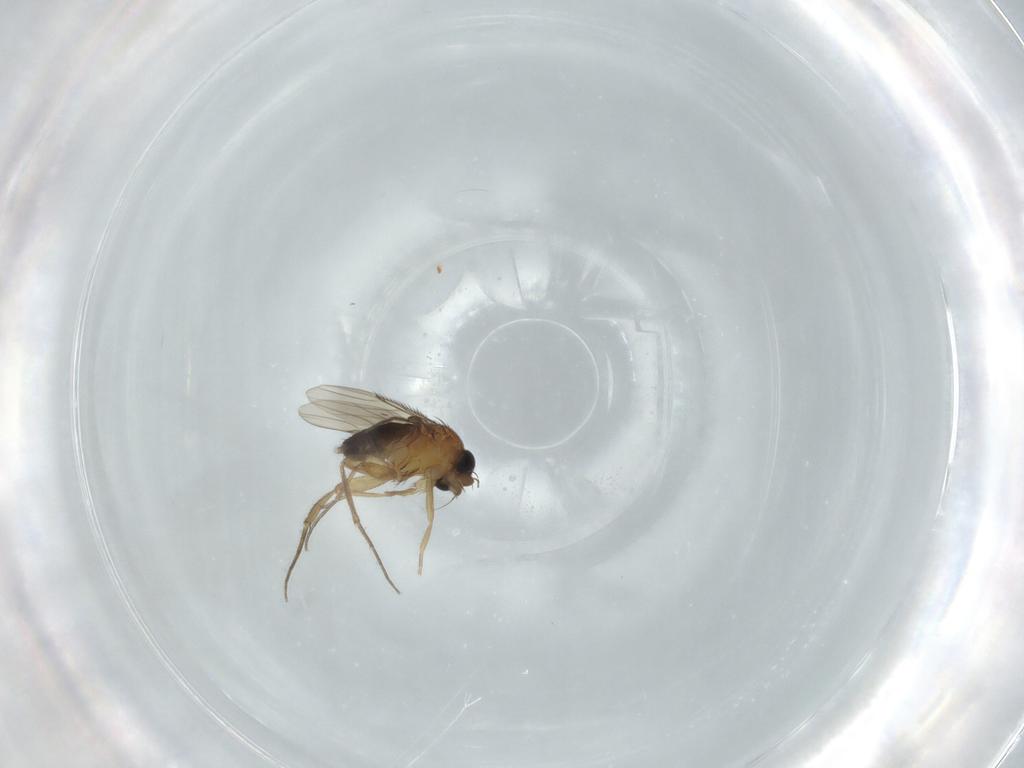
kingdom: Animalia
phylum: Arthropoda
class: Insecta
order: Diptera
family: Phoridae
